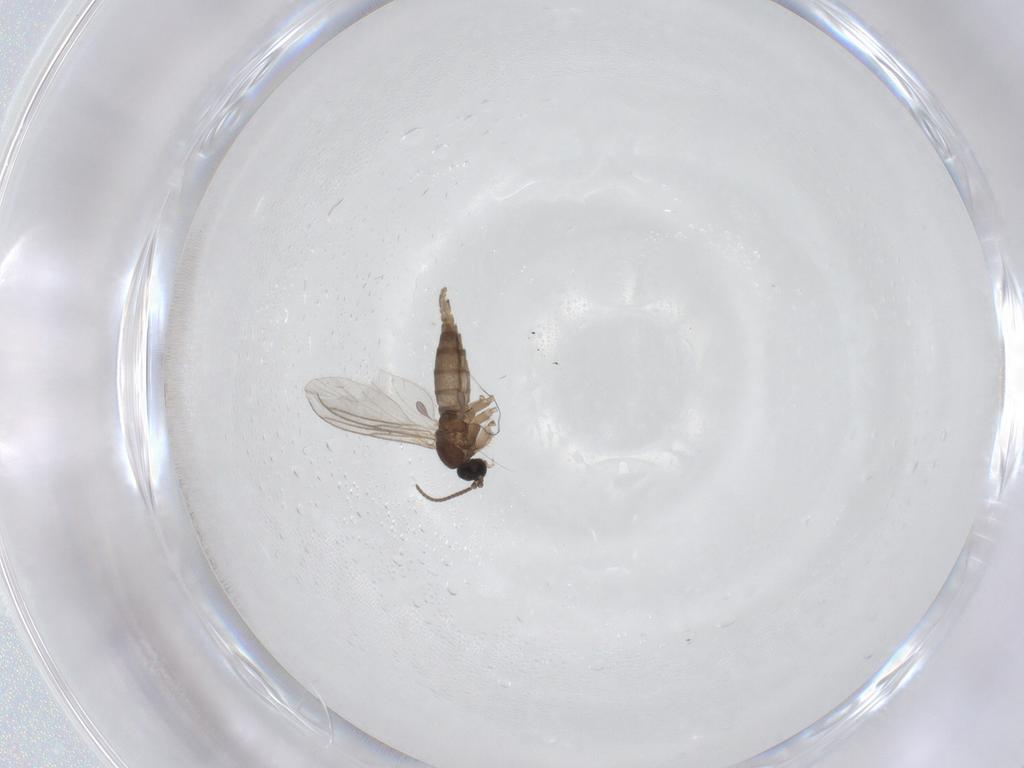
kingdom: Animalia
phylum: Arthropoda
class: Insecta
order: Diptera
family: Sciaridae
